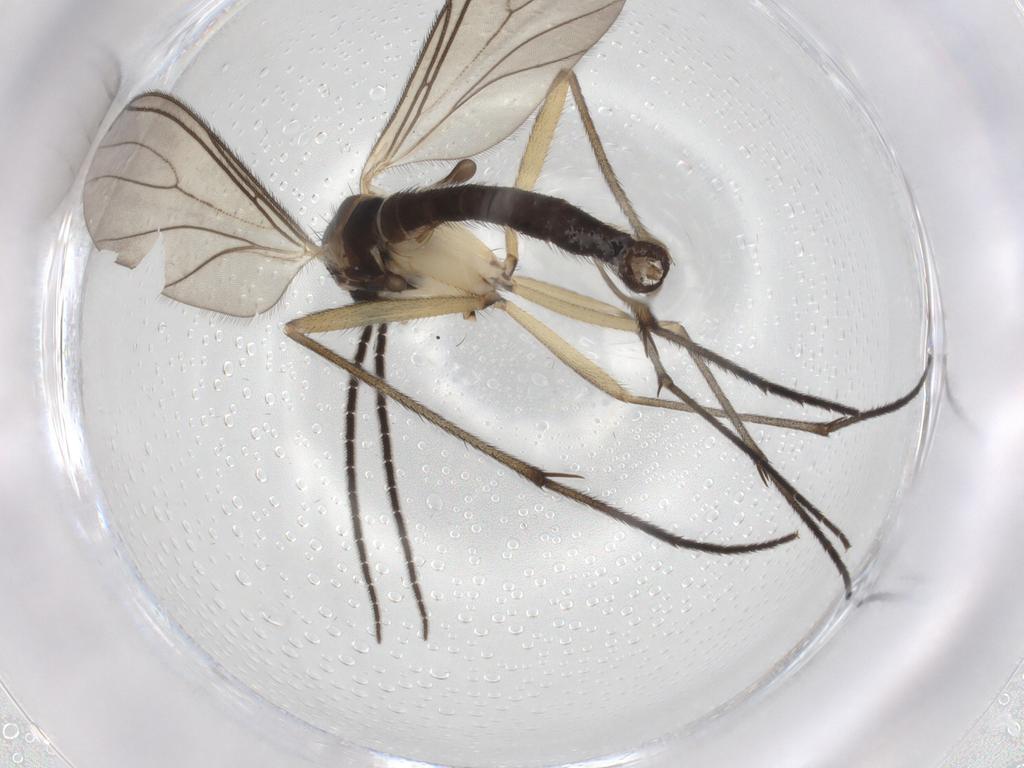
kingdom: Animalia
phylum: Arthropoda
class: Insecta
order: Diptera
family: Sciaridae
